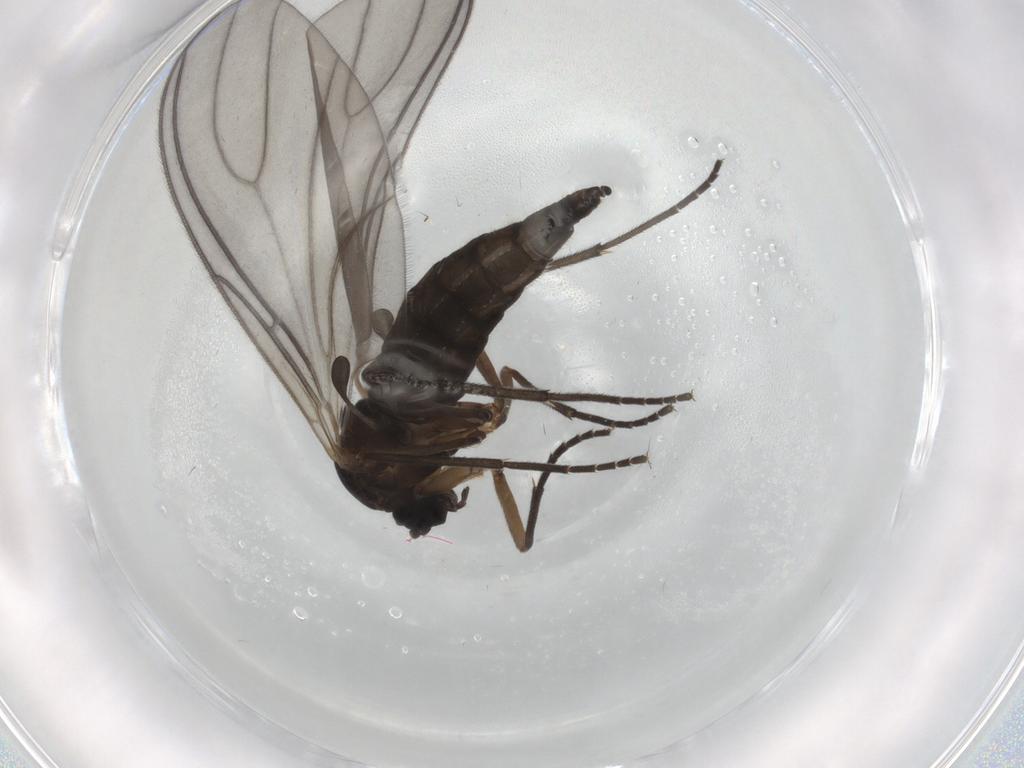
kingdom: Animalia
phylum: Arthropoda
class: Insecta
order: Diptera
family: Sciaridae
